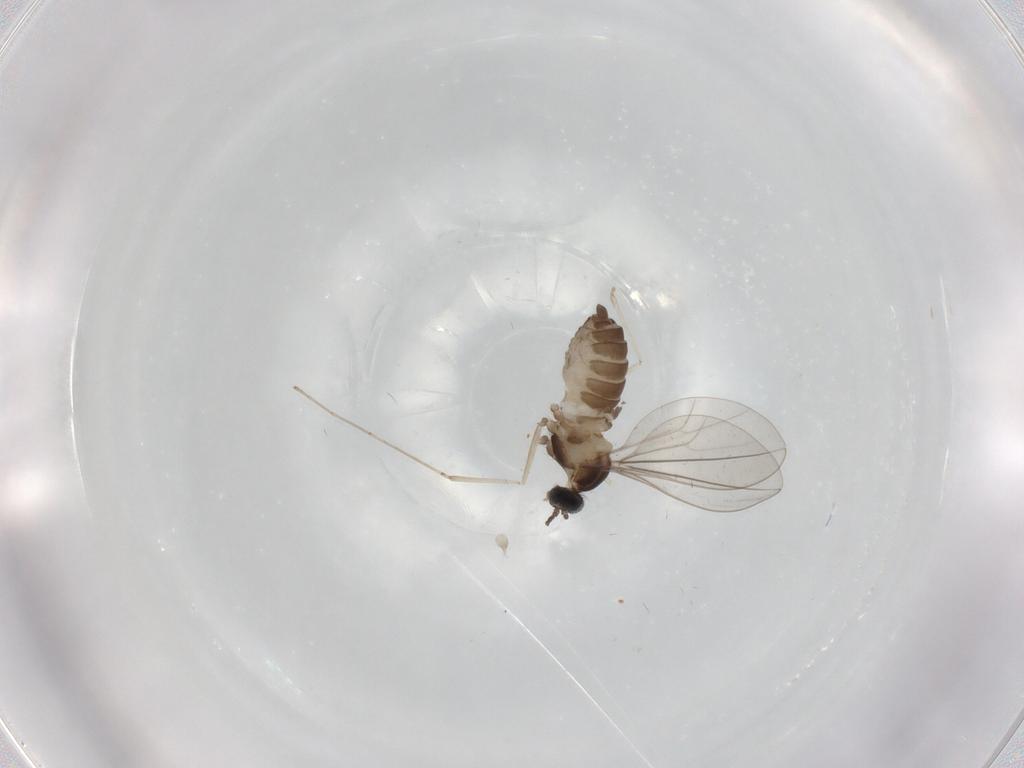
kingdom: Animalia
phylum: Arthropoda
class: Insecta
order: Diptera
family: Cecidomyiidae
